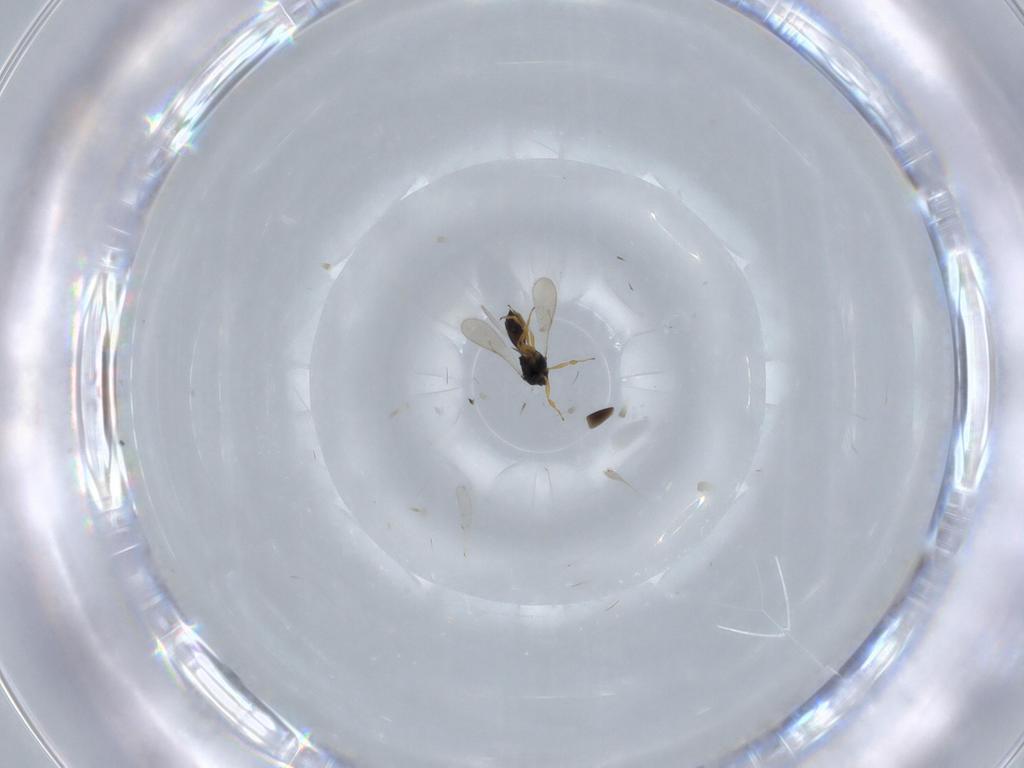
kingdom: Animalia
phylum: Arthropoda
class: Insecta
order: Hymenoptera
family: Scelionidae
